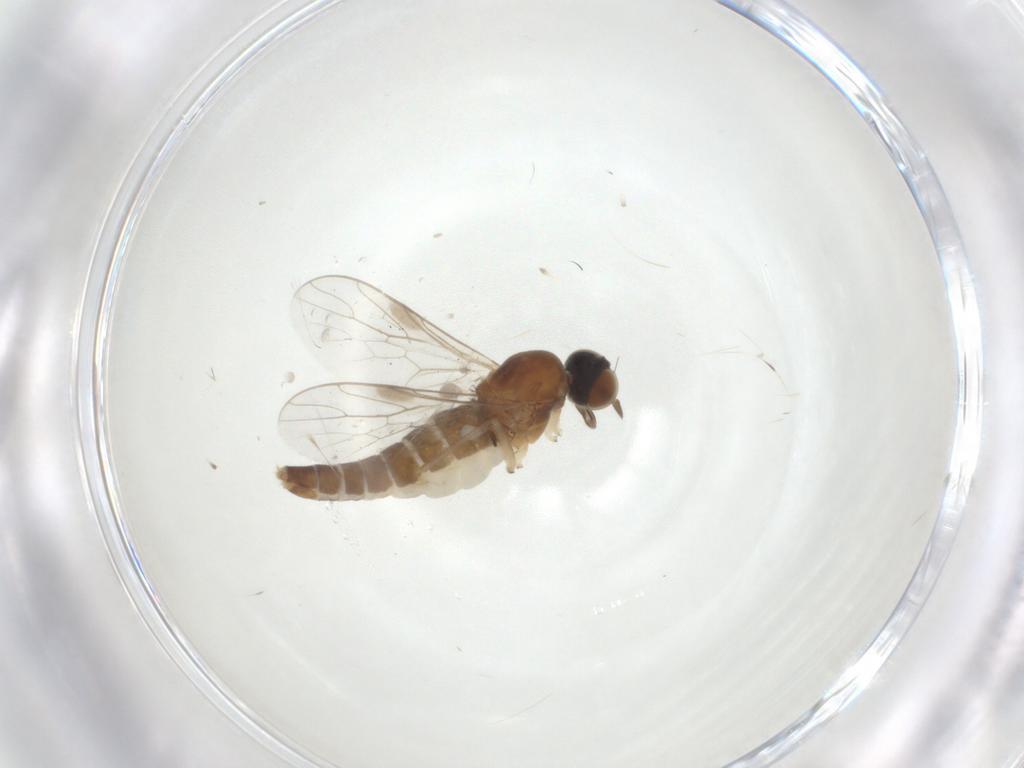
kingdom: Animalia
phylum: Arthropoda
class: Insecta
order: Diptera
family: Scenopinidae
